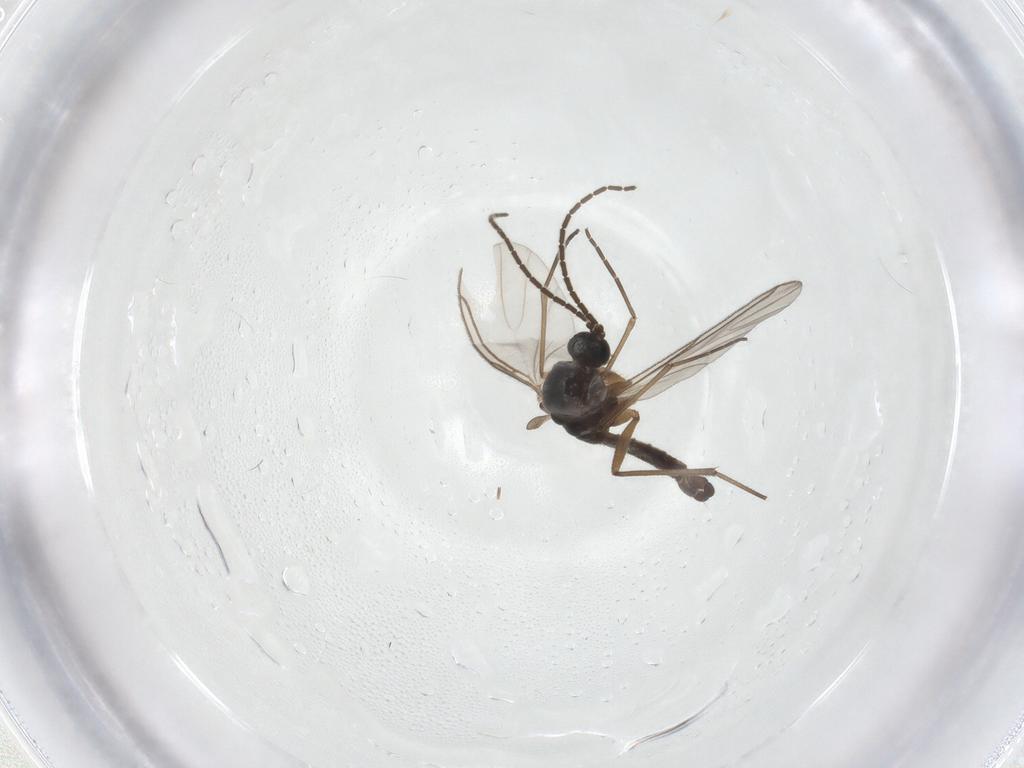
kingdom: Animalia
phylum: Arthropoda
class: Insecta
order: Diptera
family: Sciaridae
